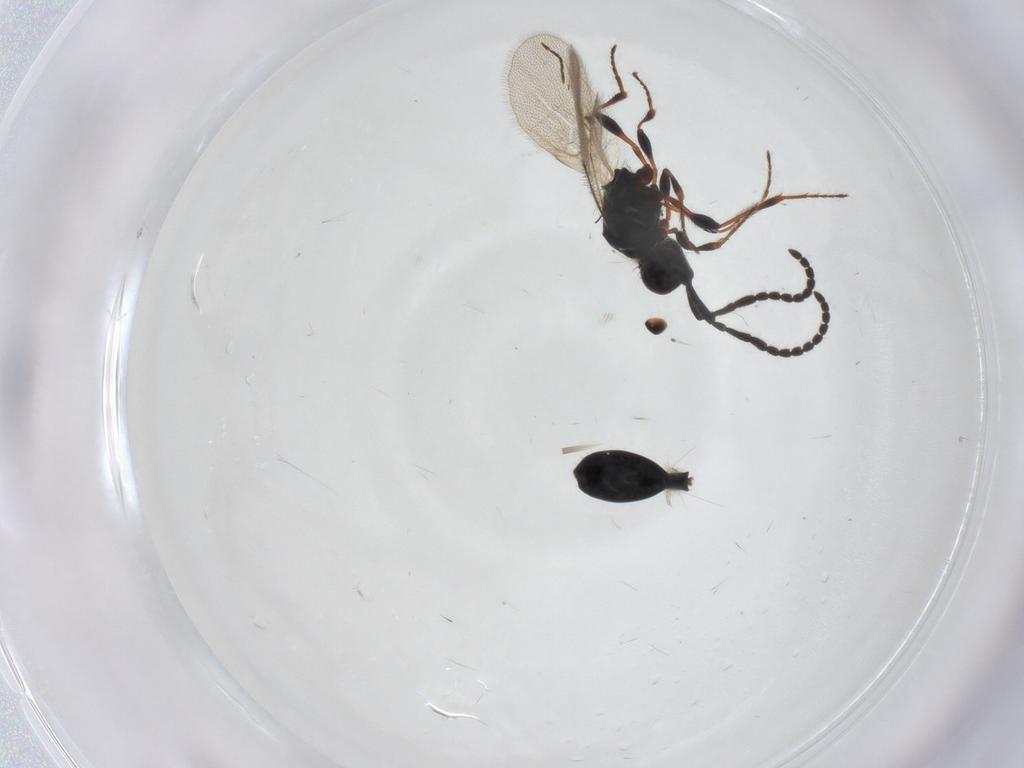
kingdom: Animalia
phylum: Arthropoda
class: Insecta
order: Hymenoptera
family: Diapriidae
